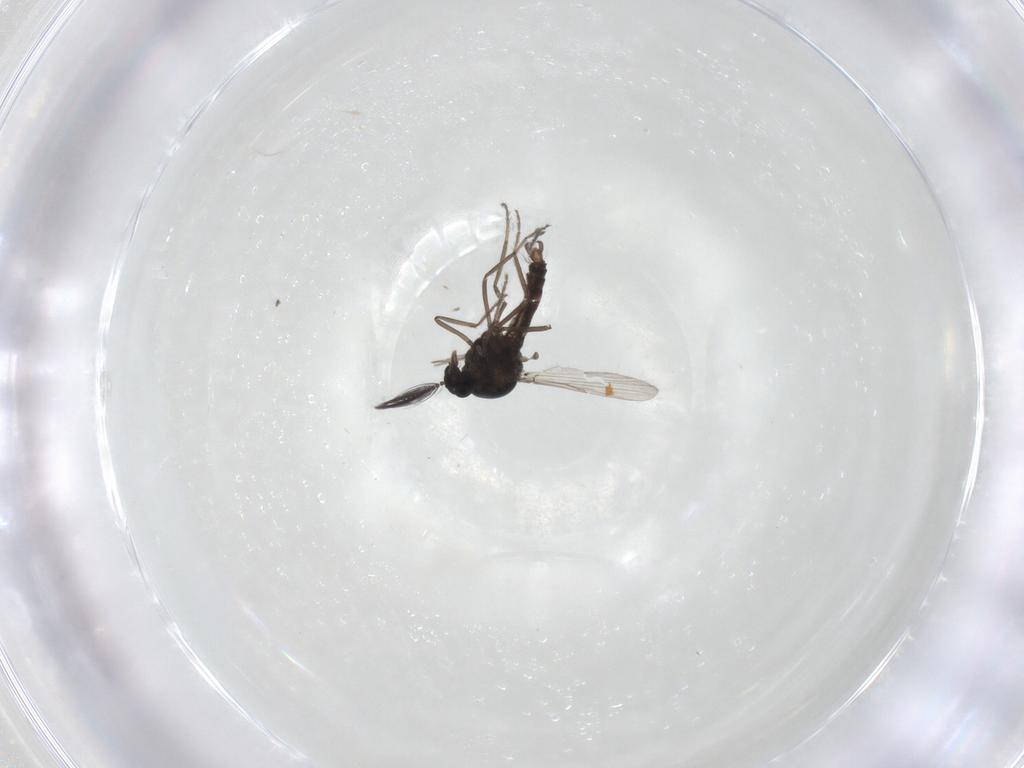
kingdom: Animalia
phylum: Arthropoda
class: Insecta
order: Diptera
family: Ceratopogonidae
